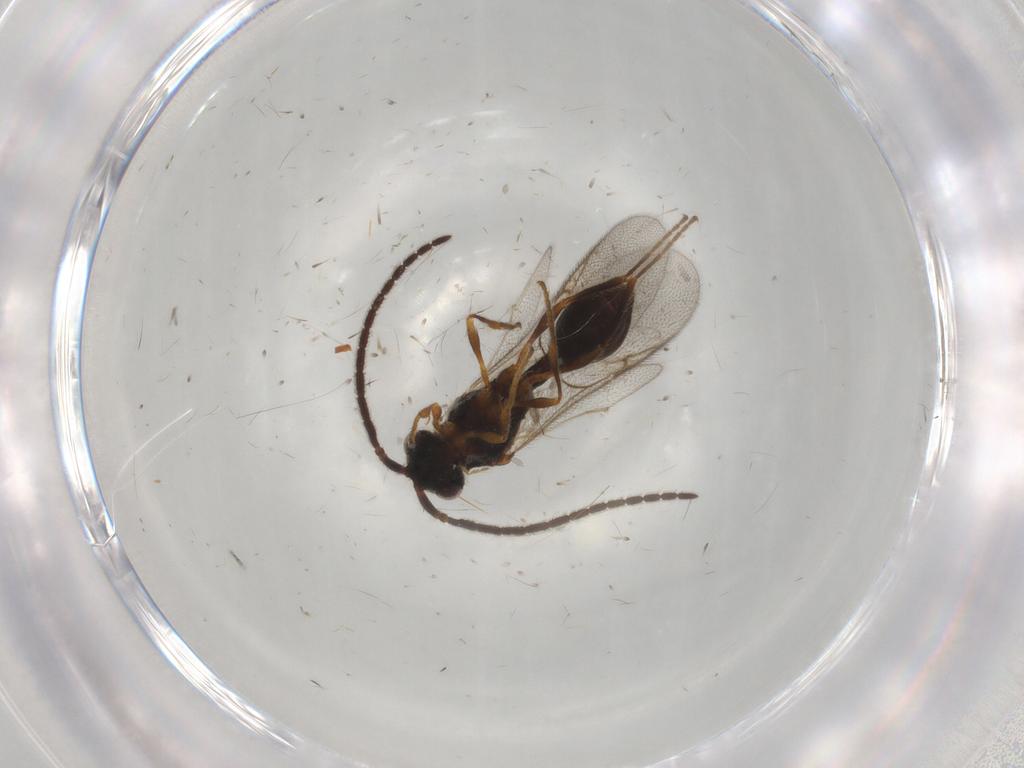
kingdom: Animalia
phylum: Arthropoda
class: Insecta
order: Hymenoptera
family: Diapriidae
